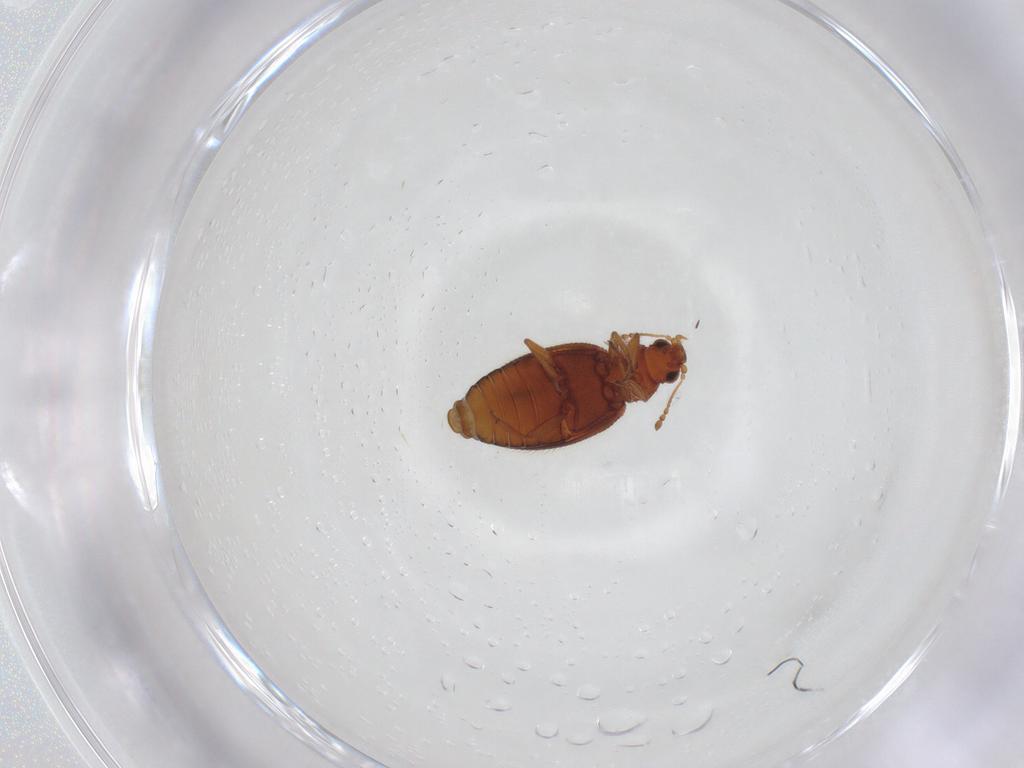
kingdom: Animalia
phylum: Arthropoda
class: Insecta
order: Coleoptera
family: Latridiidae
